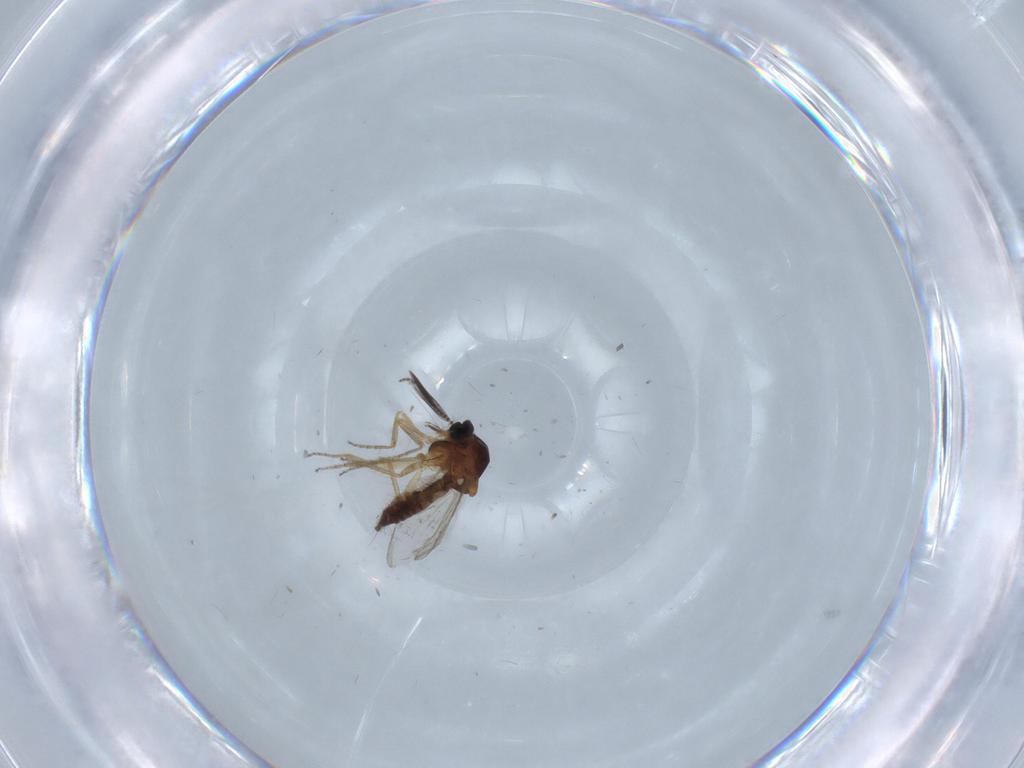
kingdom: Animalia
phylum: Arthropoda
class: Insecta
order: Diptera
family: Ceratopogonidae
